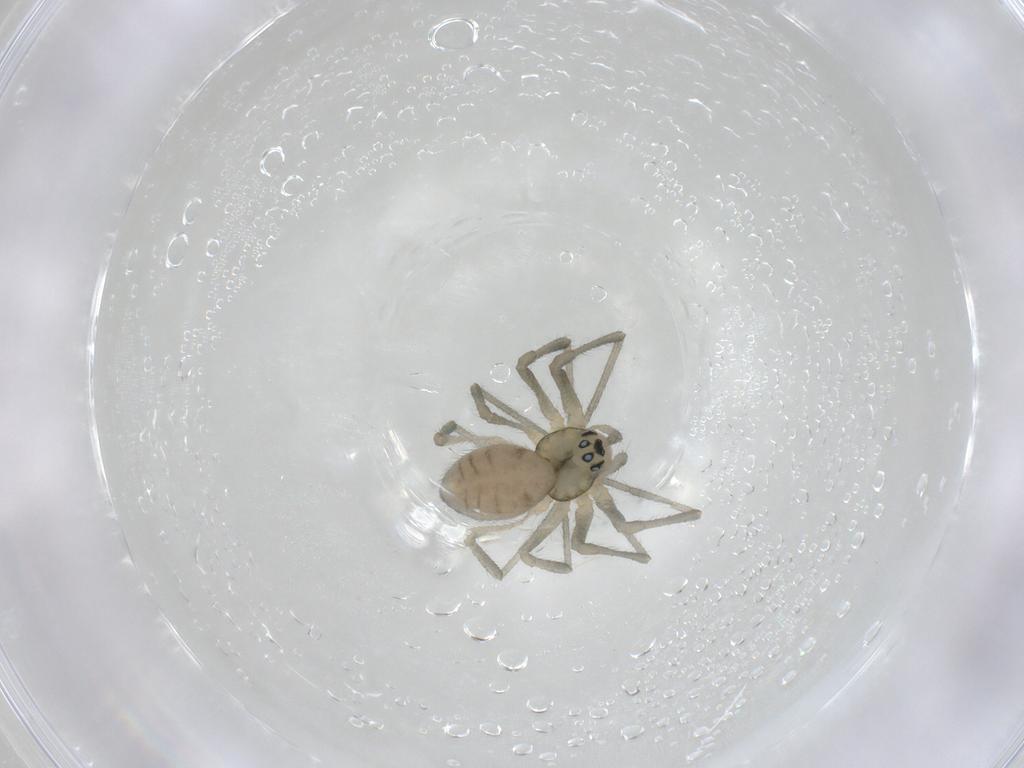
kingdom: Animalia
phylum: Arthropoda
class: Arachnida
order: Araneae
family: Linyphiidae
